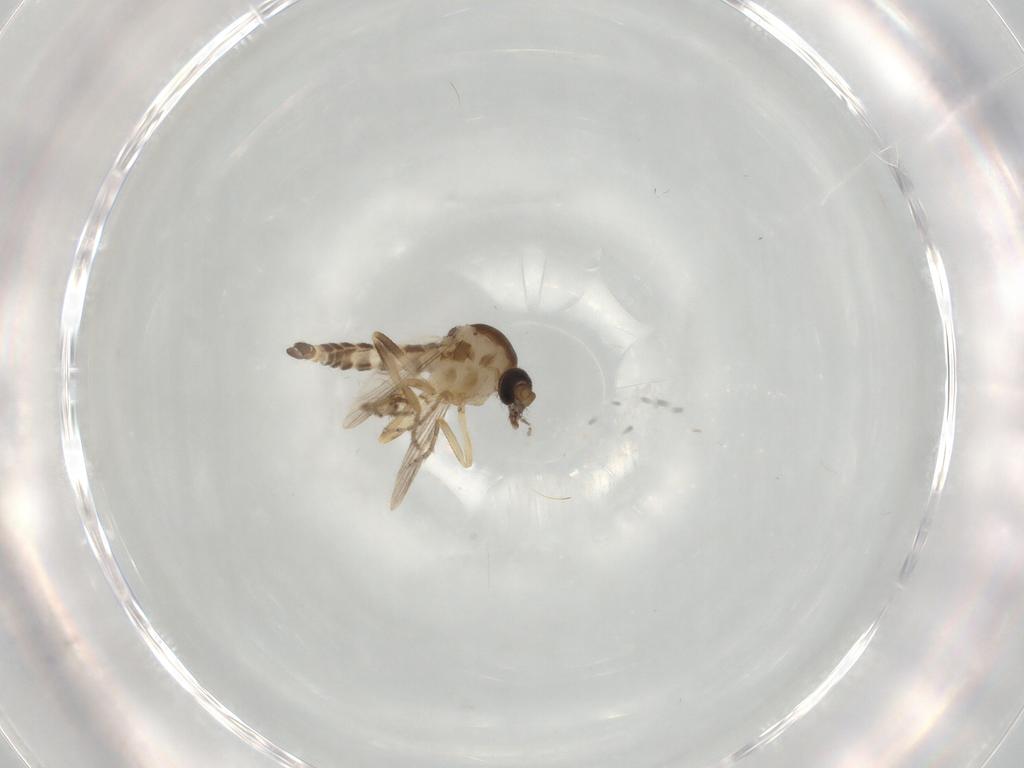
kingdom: Animalia
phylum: Arthropoda
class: Insecta
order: Diptera
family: Ceratopogonidae
